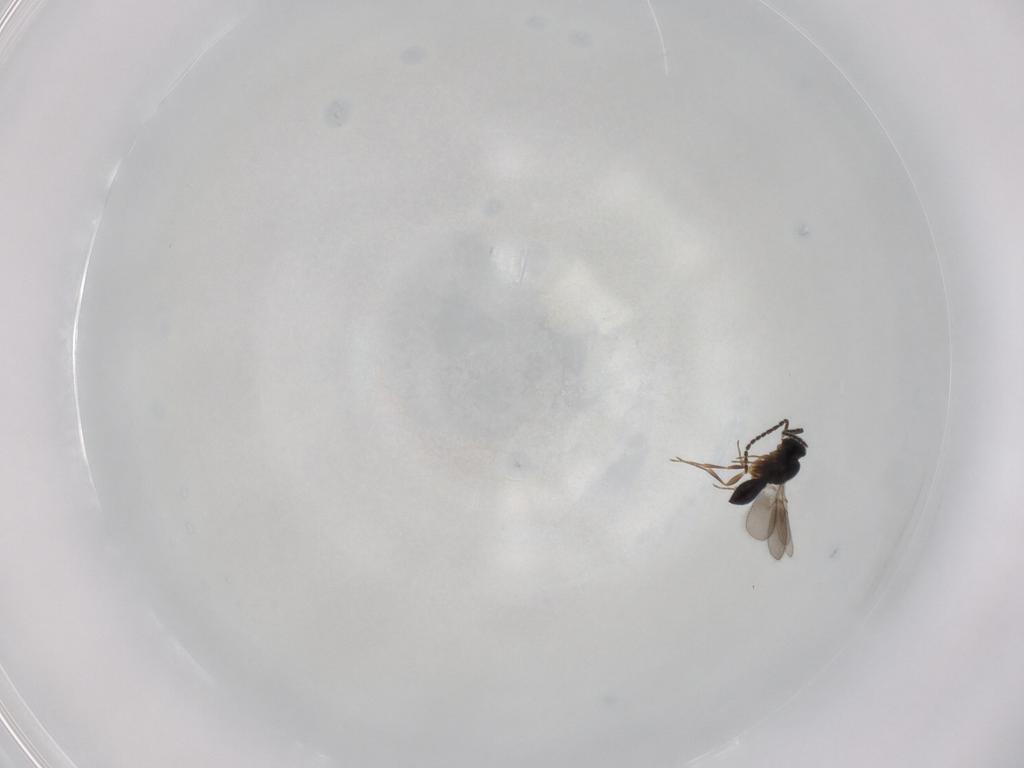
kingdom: Animalia
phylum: Arthropoda
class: Insecta
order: Hymenoptera
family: Scelionidae
